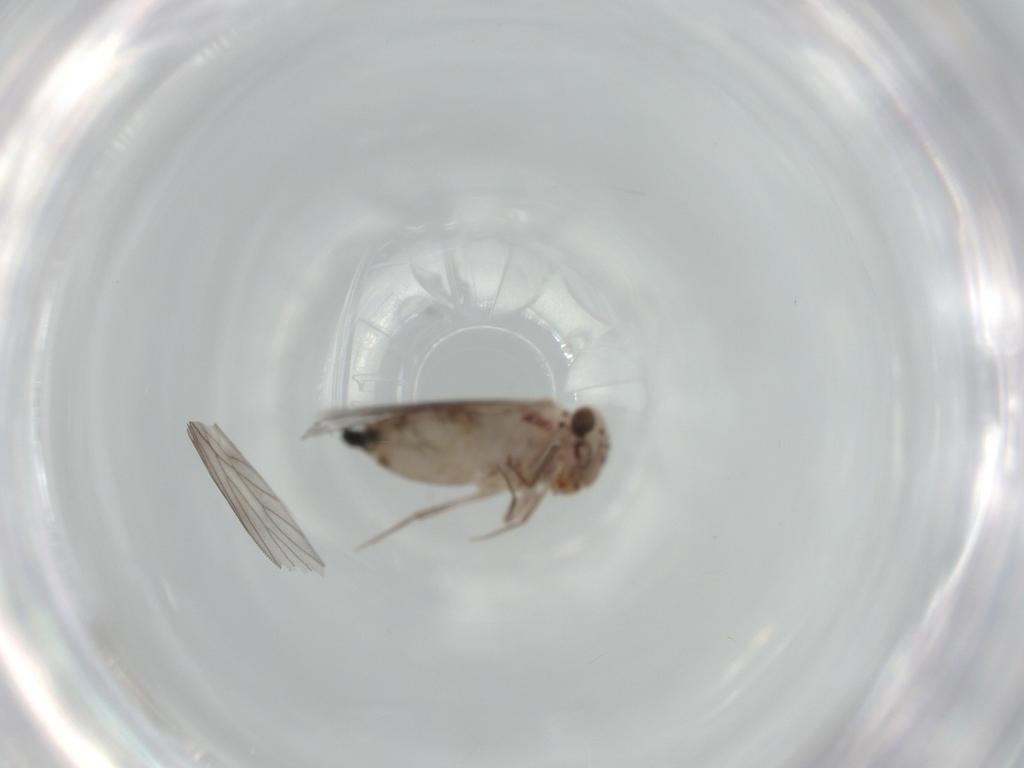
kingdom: Animalia
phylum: Arthropoda
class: Insecta
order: Psocodea
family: Lepidopsocidae
